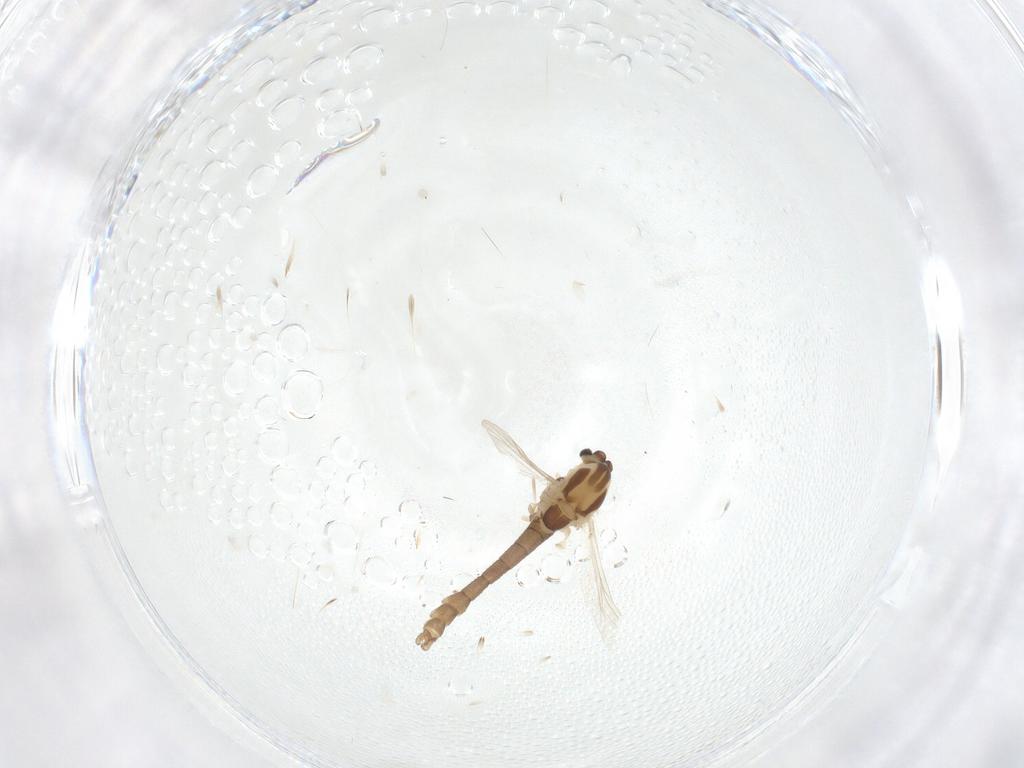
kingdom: Animalia
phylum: Arthropoda
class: Insecta
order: Diptera
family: Chironomidae
